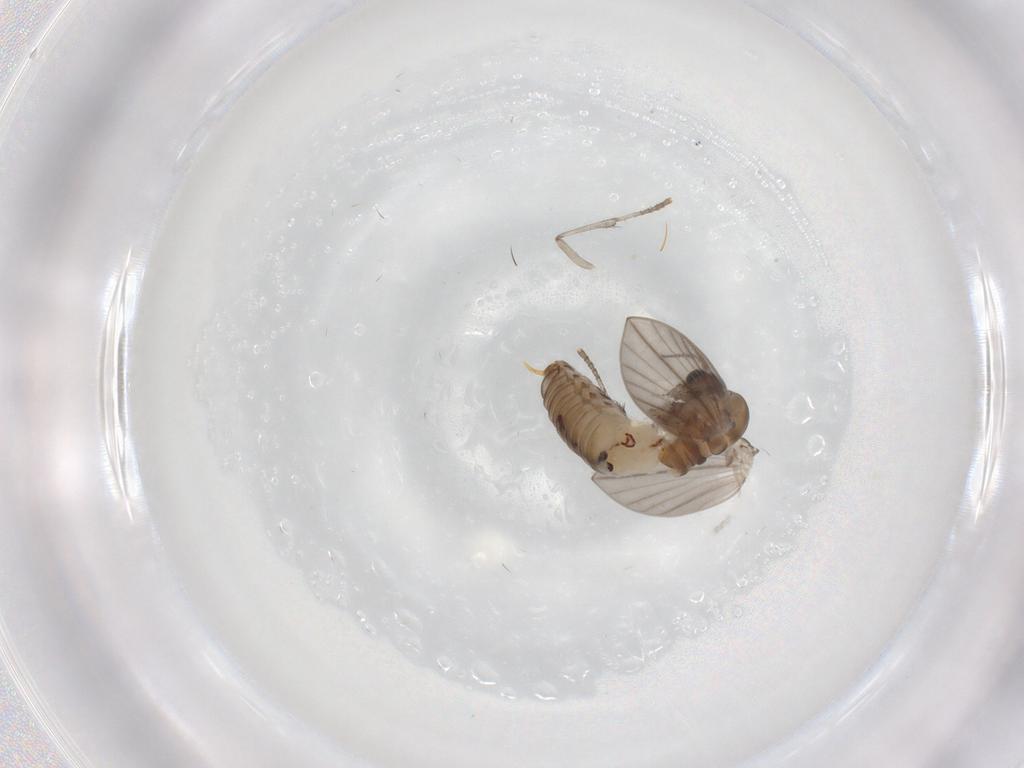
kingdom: Animalia
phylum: Arthropoda
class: Insecta
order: Diptera
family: Psychodidae
